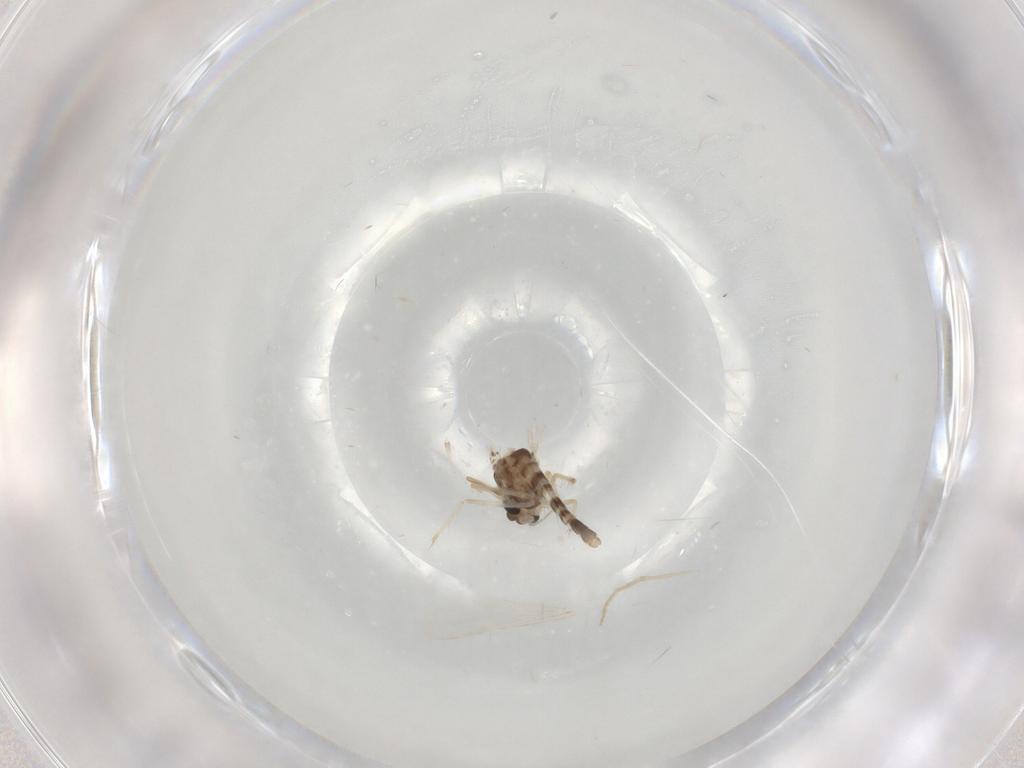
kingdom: Animalia
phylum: Arthropoda
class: Insecta
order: Diptera
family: Chironomidae
